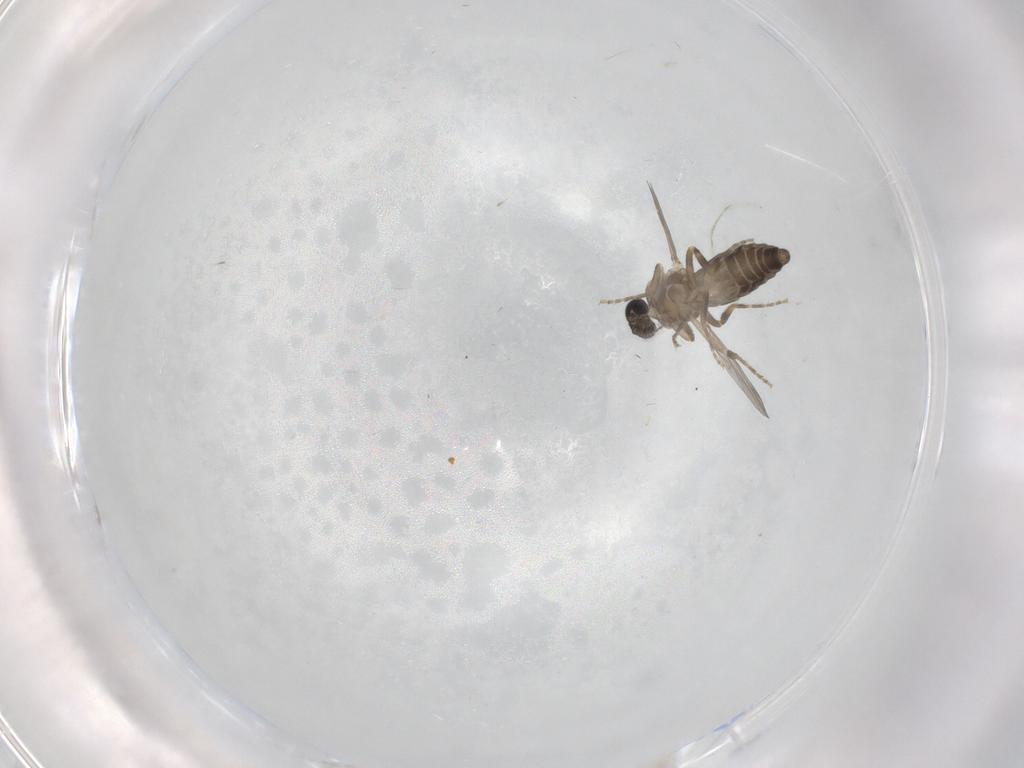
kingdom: Animalia
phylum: Arthropoda
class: Insecta
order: Diptera
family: Ceratopogonidae
